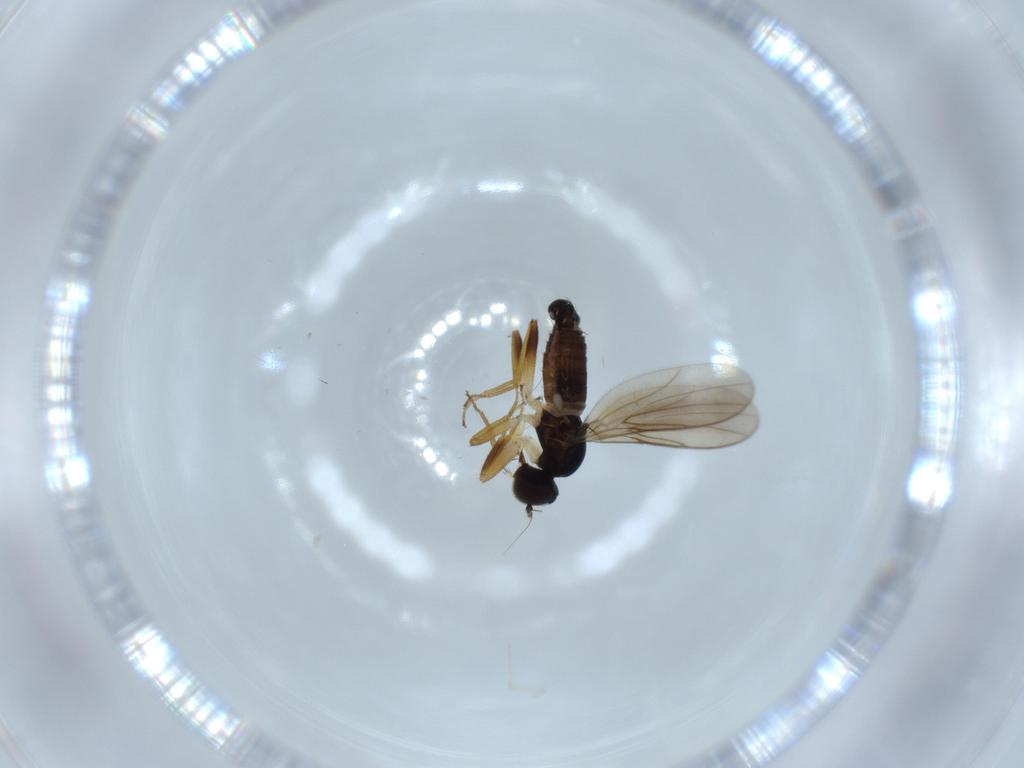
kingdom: Animalia
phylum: Arthropoda
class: Insecta
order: Diptera
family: Hybotidae
